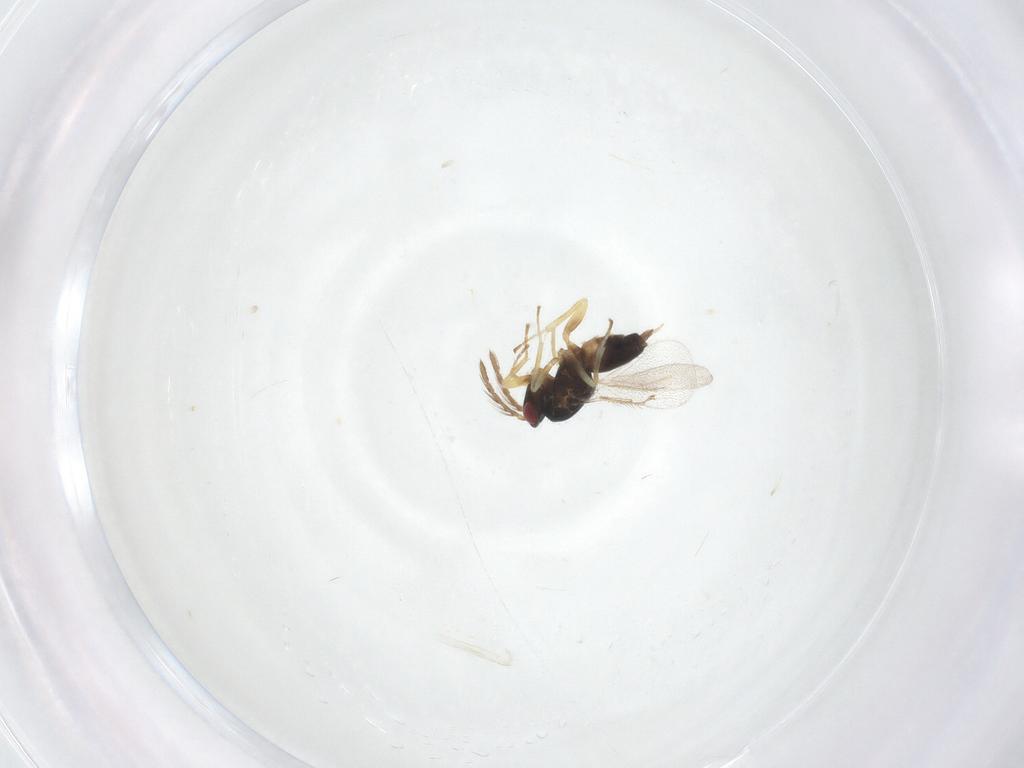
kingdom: Animalia
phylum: Arthropoda
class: Insecta
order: Hymenoptera
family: Eulophidae
